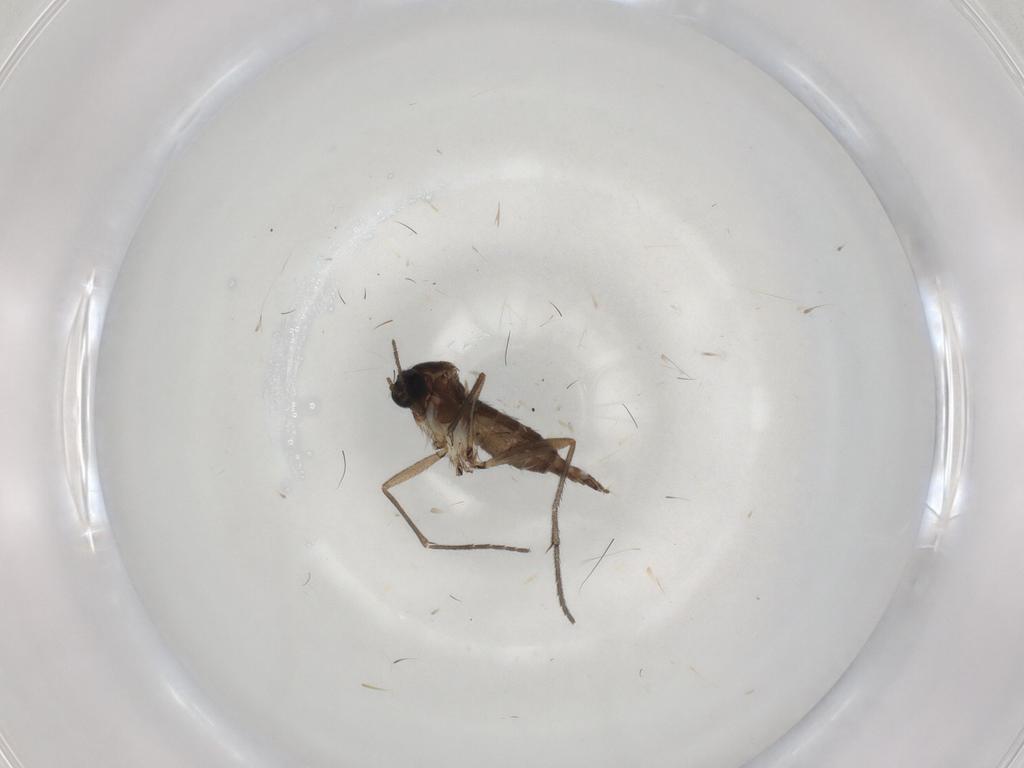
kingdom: Animalia
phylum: Arthropoda
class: Insecta
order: Diptera
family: Sciaridae
